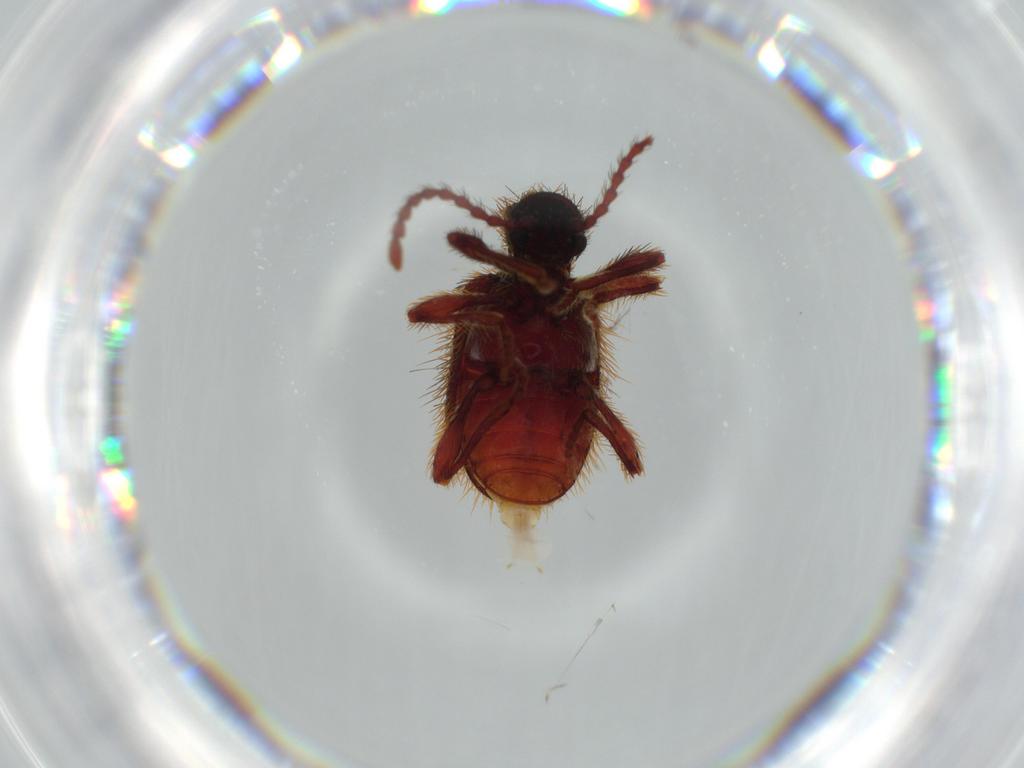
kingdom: Animalia
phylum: Arthropoda
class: Insecta
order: Coleoptera
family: Ptinidae
